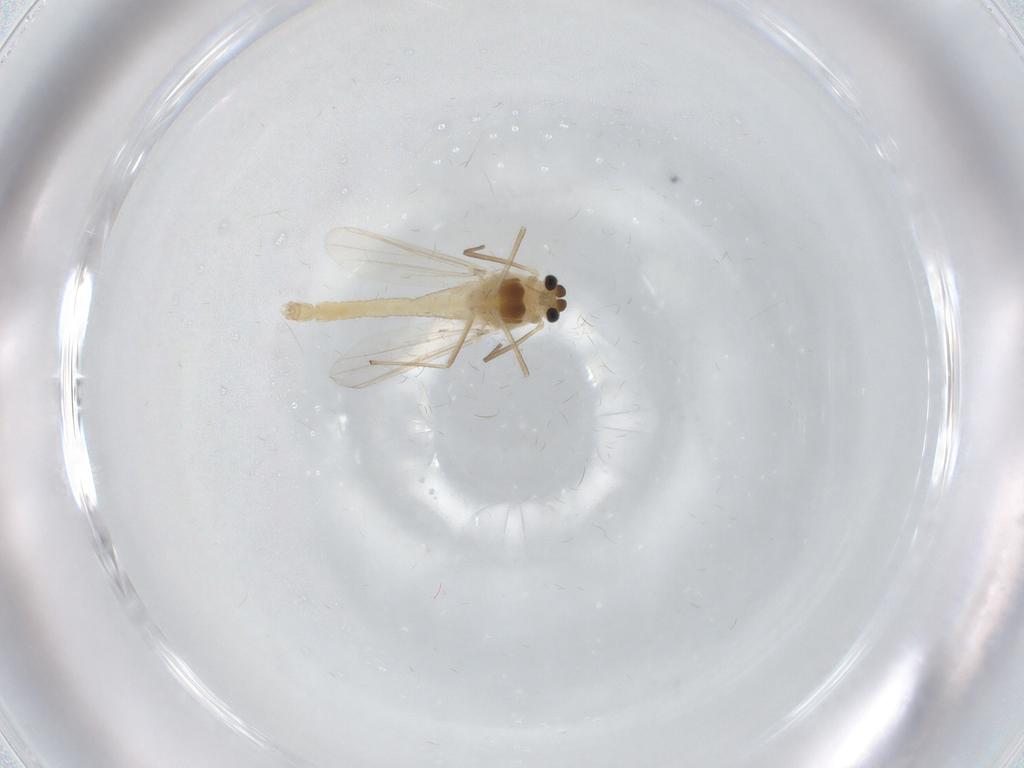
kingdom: Animalia
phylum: Arthropoda
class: Insecta
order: Diptera
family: Chironomidae
